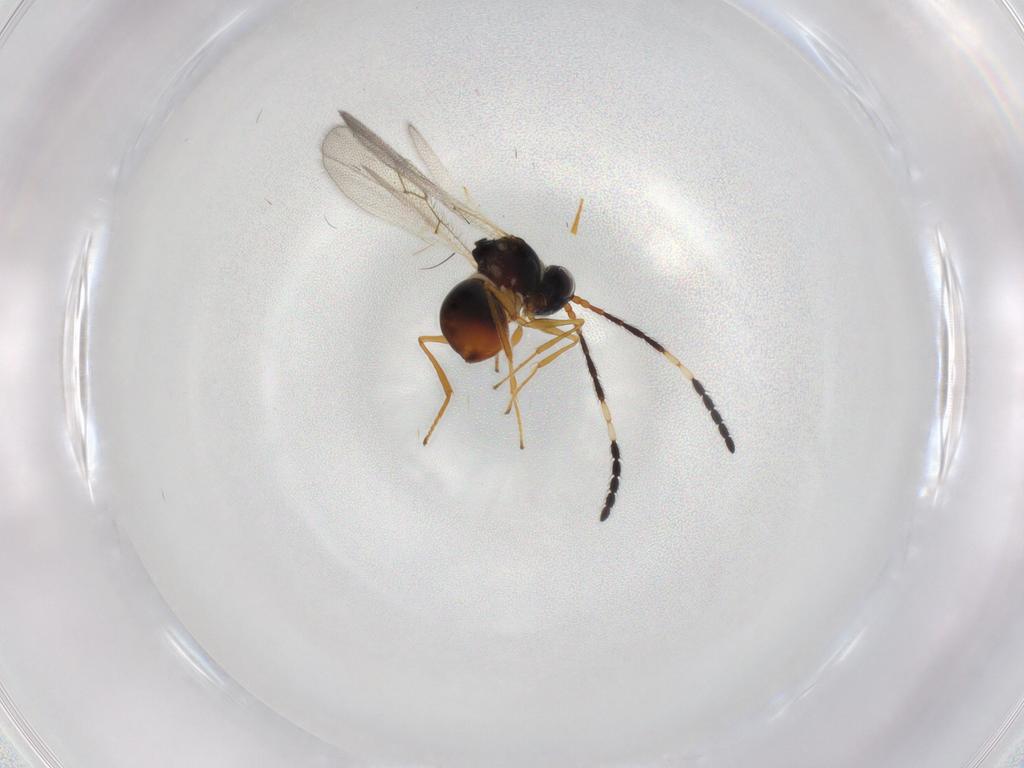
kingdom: Animalia
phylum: Arthropoda
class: Insecta
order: Hymenoptera
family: Figitidae
